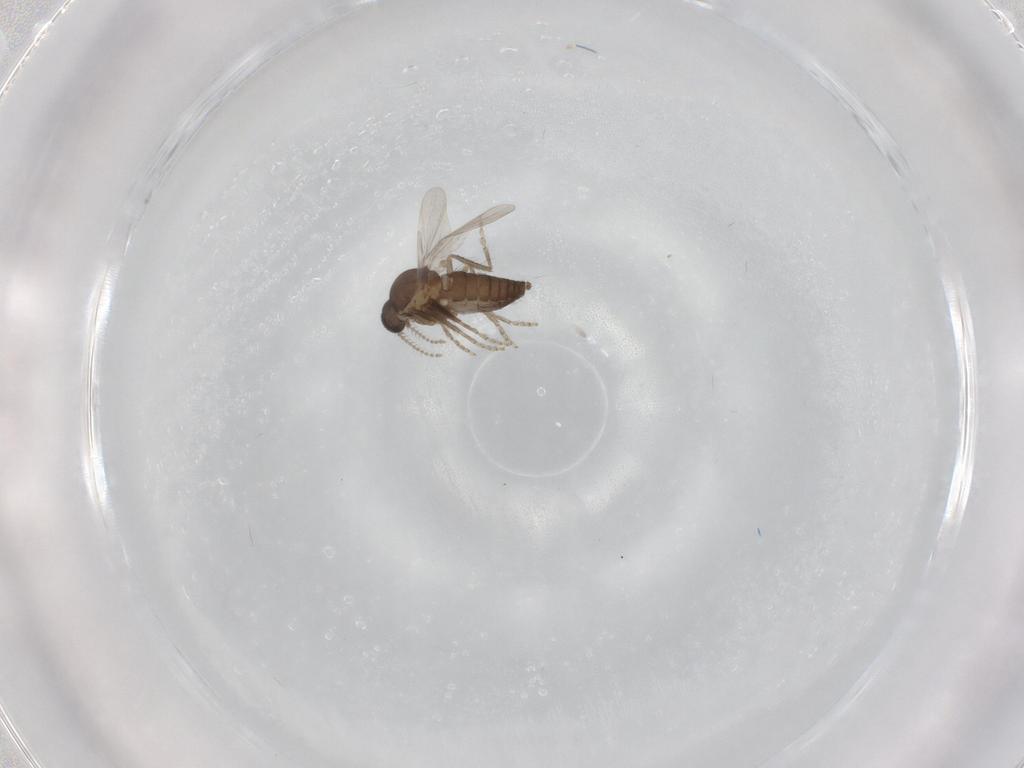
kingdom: Animalia
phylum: Arthropoda
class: Insecta
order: Diptera
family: Ceratopogonidae
